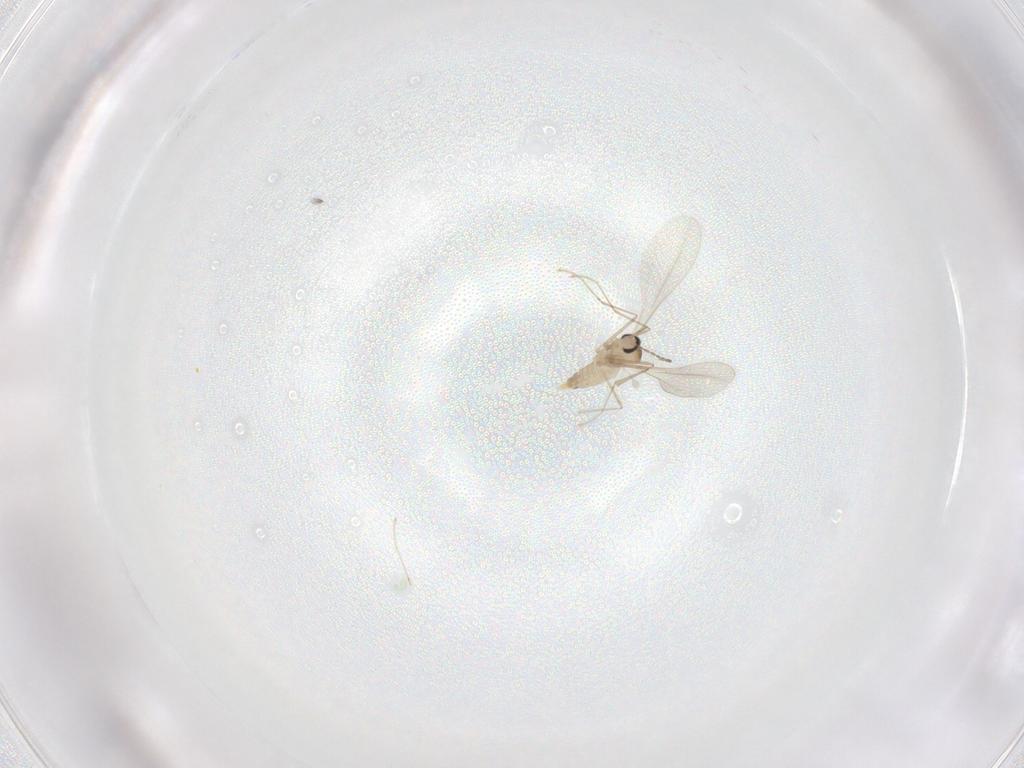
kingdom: Animalia
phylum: Arthropoda
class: Insecta
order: Diptera
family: Cecidomyiidae
